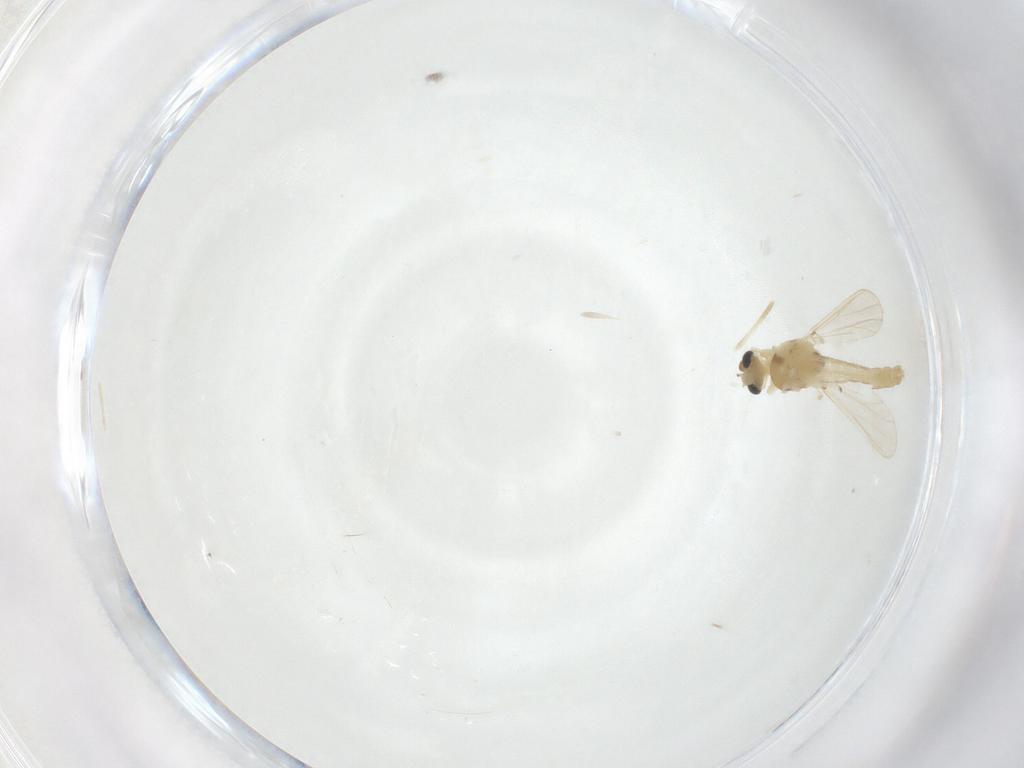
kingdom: Animalia
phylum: Arthropoda
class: Insecta
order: Diptera
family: Chironomidae
